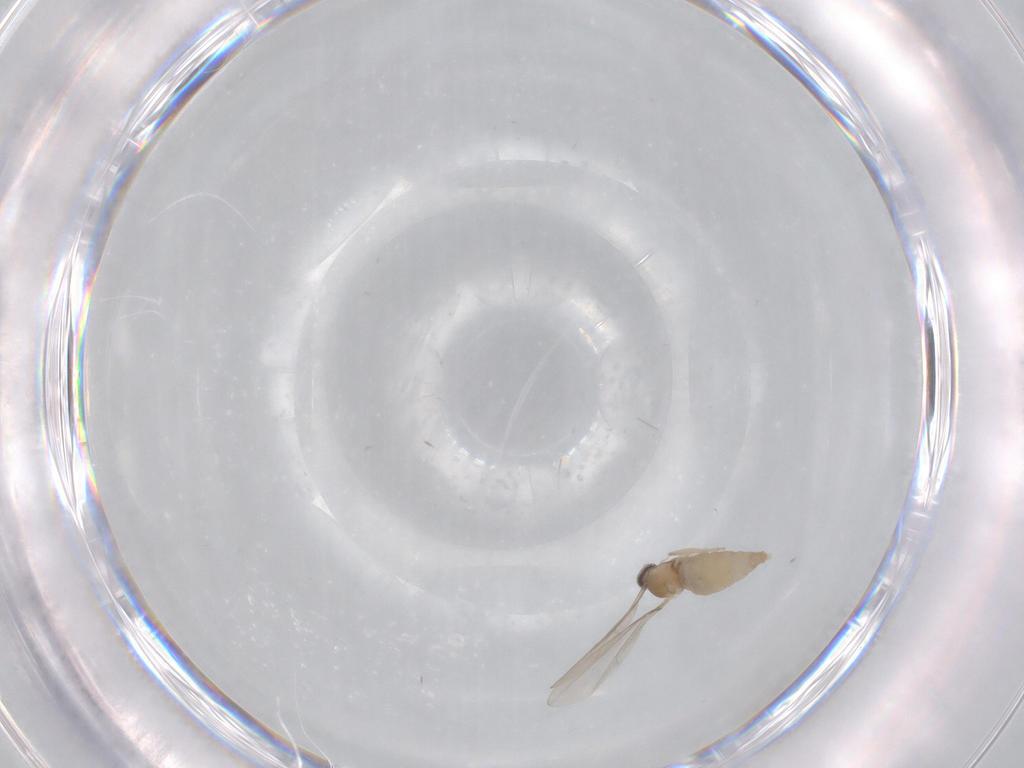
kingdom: Animalia
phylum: Arthropoda
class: Insecta
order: Diptera
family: Cecidomyiidae
